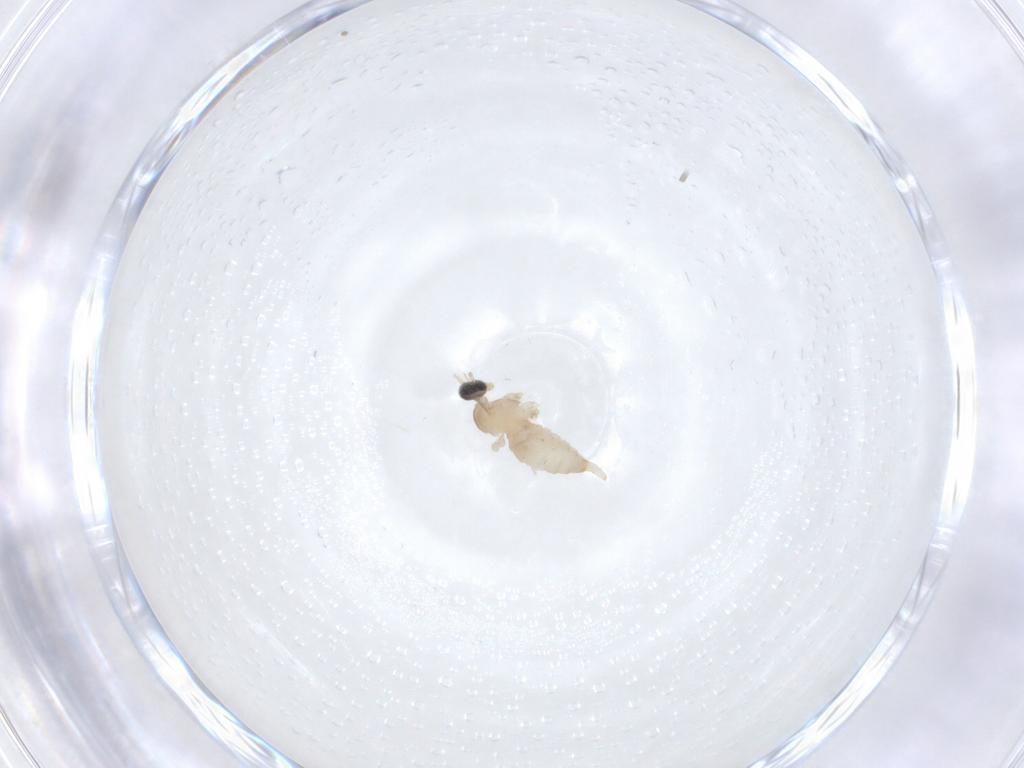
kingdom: Animalia
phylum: Arthropoda
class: Insecta
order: Diptera
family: Cecidomyiidae
